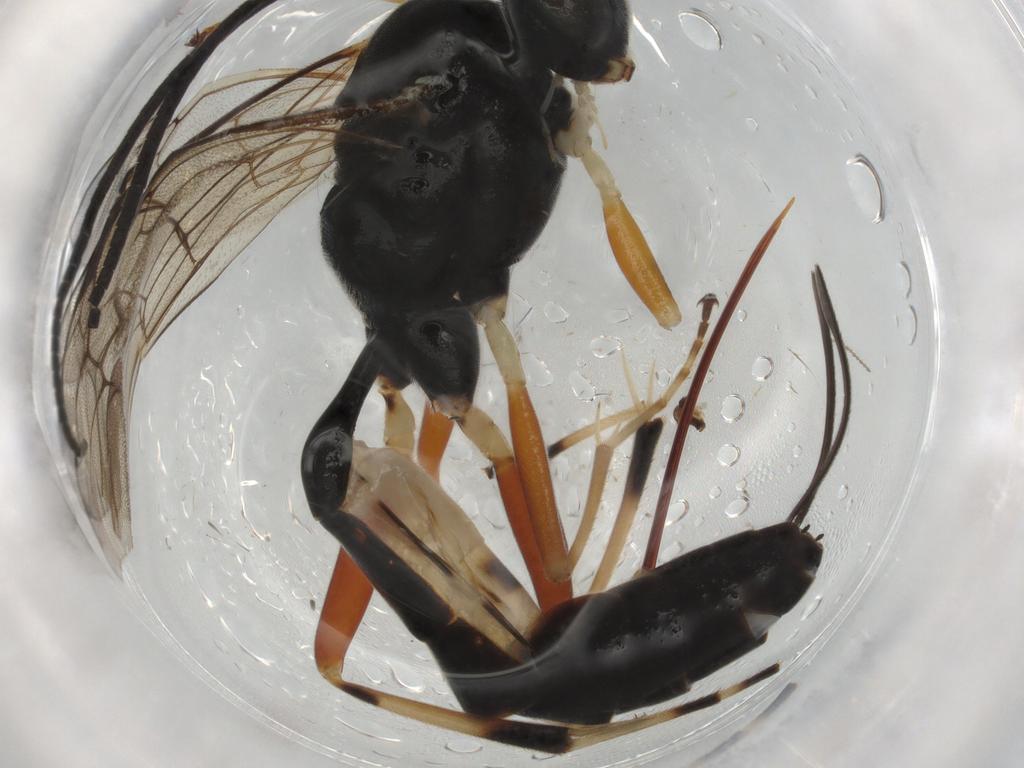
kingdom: Animalia
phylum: Arthropoda
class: Insecta
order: Hymenoptera
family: Ichneumonidae
